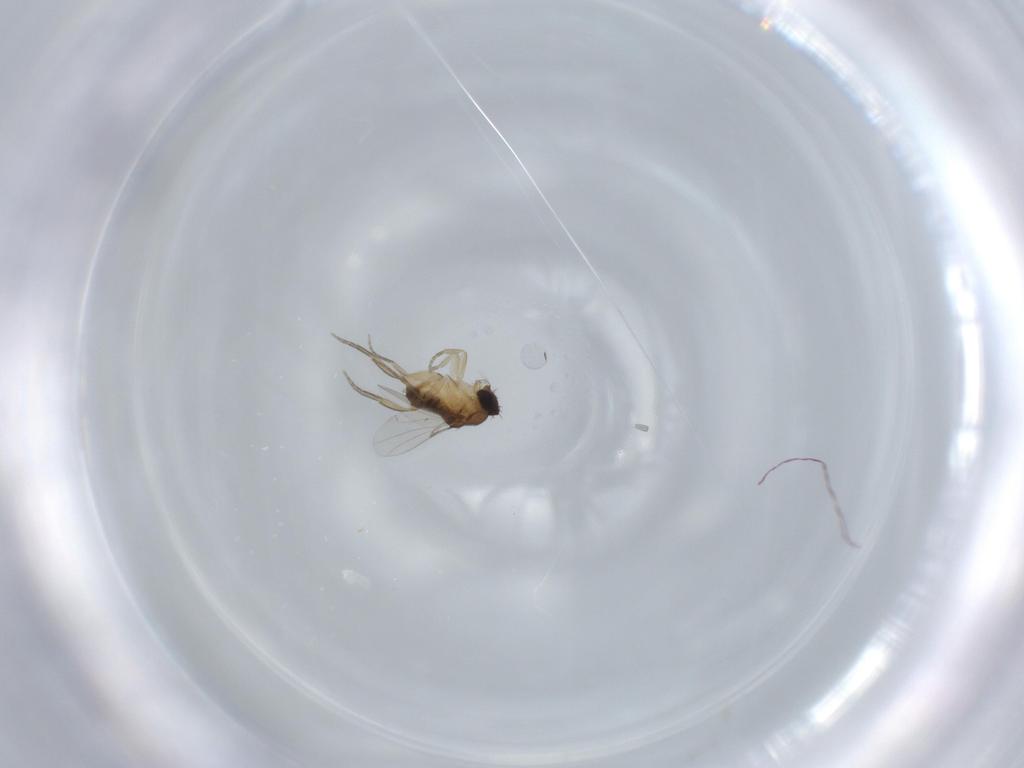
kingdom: Animalia
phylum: Arthropoda
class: Insecta
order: Diptera
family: Phoridae
